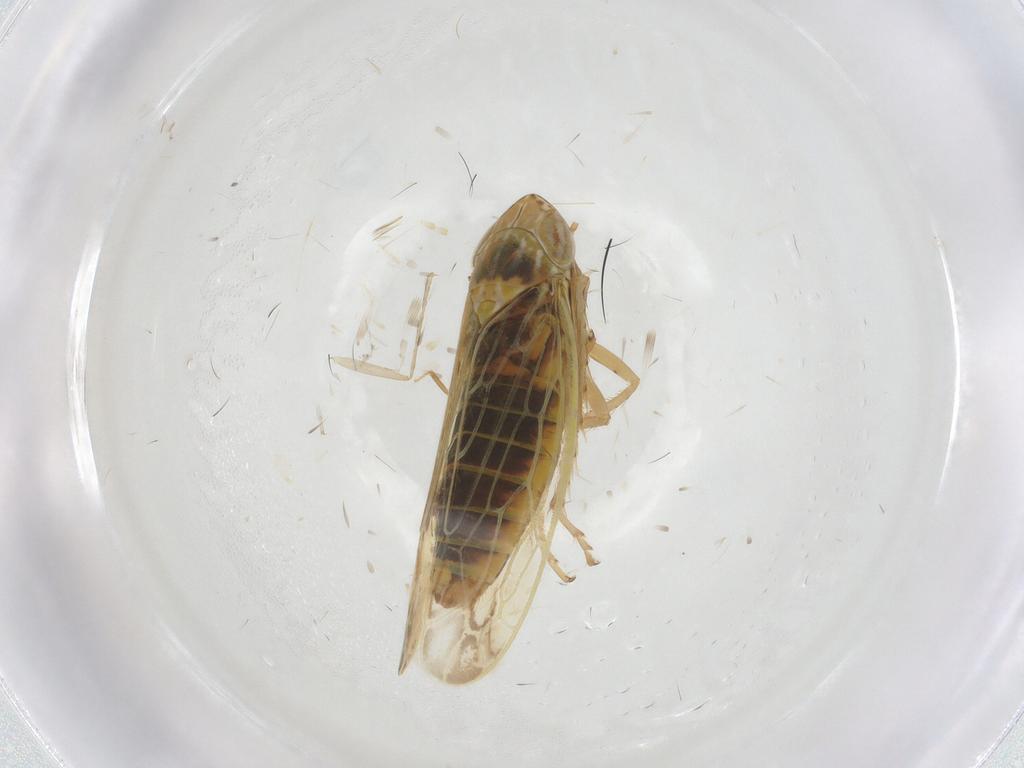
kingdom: Animalia
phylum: Arthropoda
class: Insecta
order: Hemiptera
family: Cicadellidae
